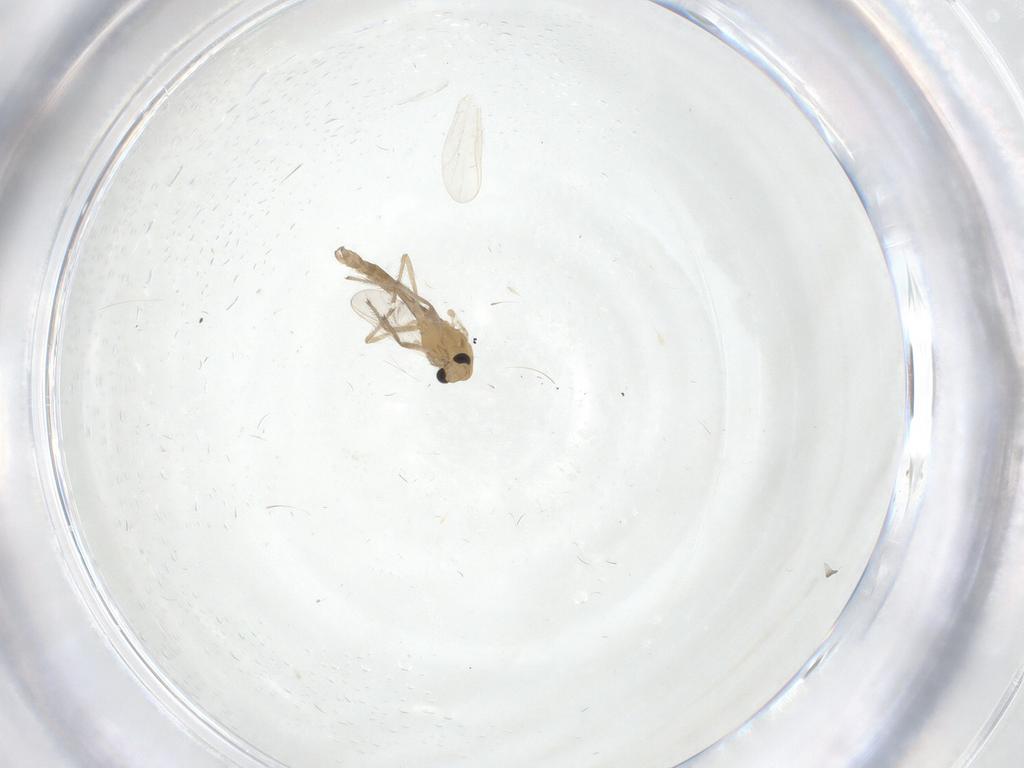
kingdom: Animalia
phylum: Arthropoda
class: Insecta
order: Diptera
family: Chironomidae
